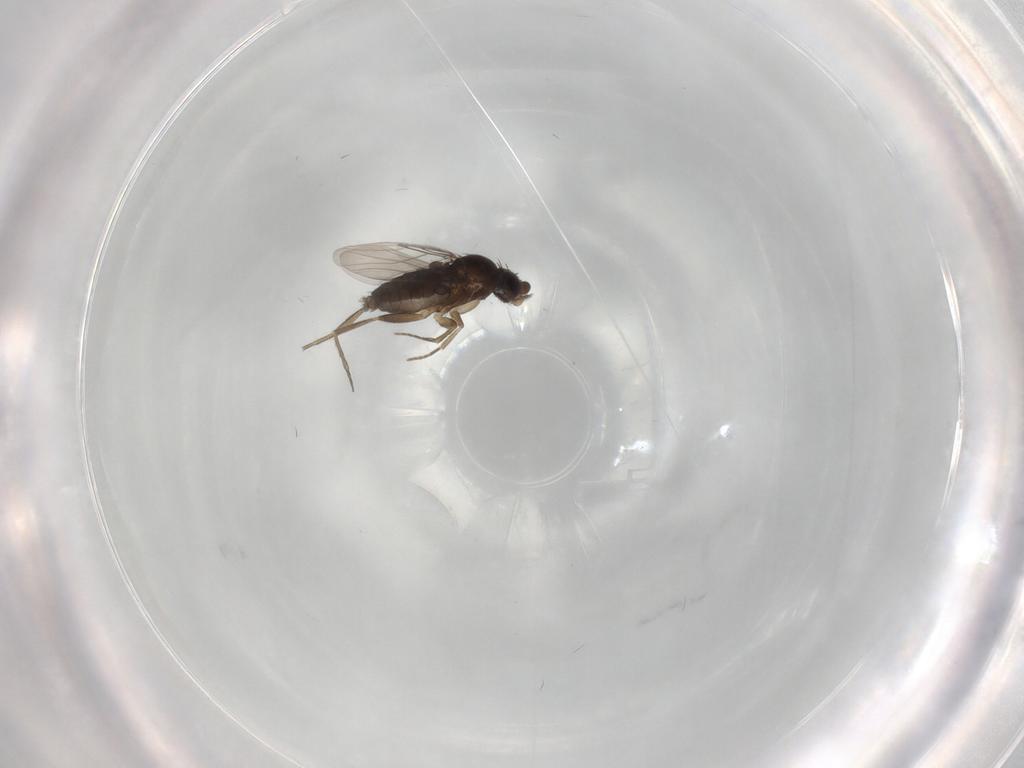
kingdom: Animalia
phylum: Arthropoda
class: Insecta
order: Diptera
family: Phoridae
